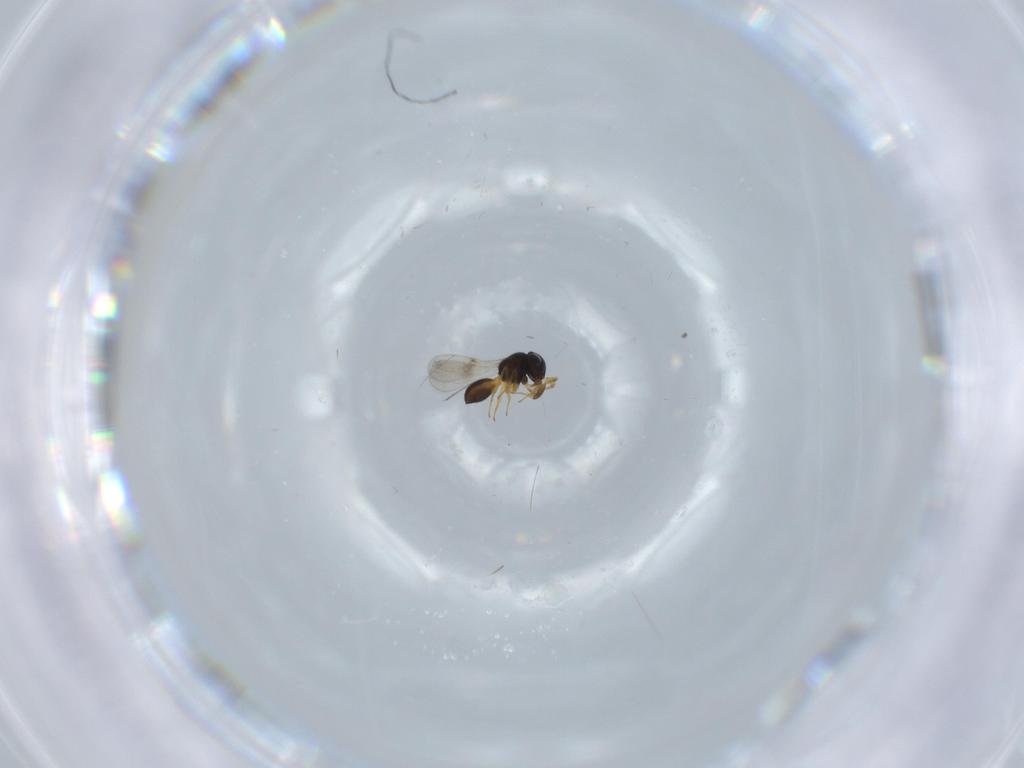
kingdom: Animalia
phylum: Arthropoda
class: Insecta
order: Hymenoptera
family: Scelionidae
